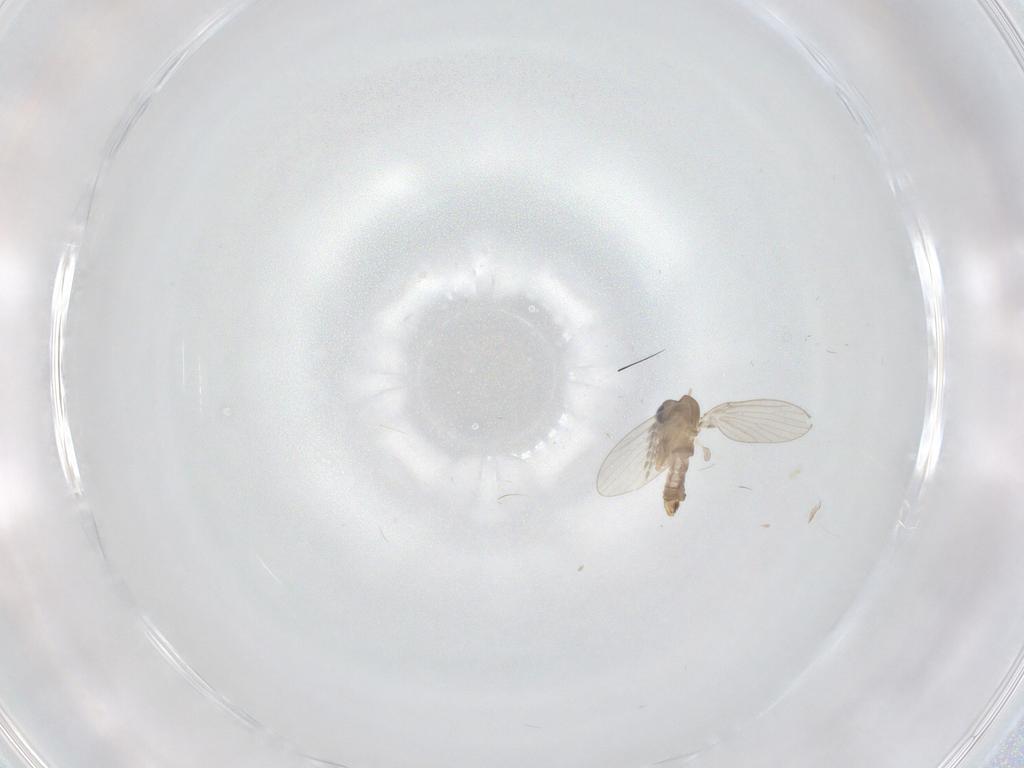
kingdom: Animalia
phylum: Arthropoda
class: Insecta
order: Diptera
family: Psychodidae
